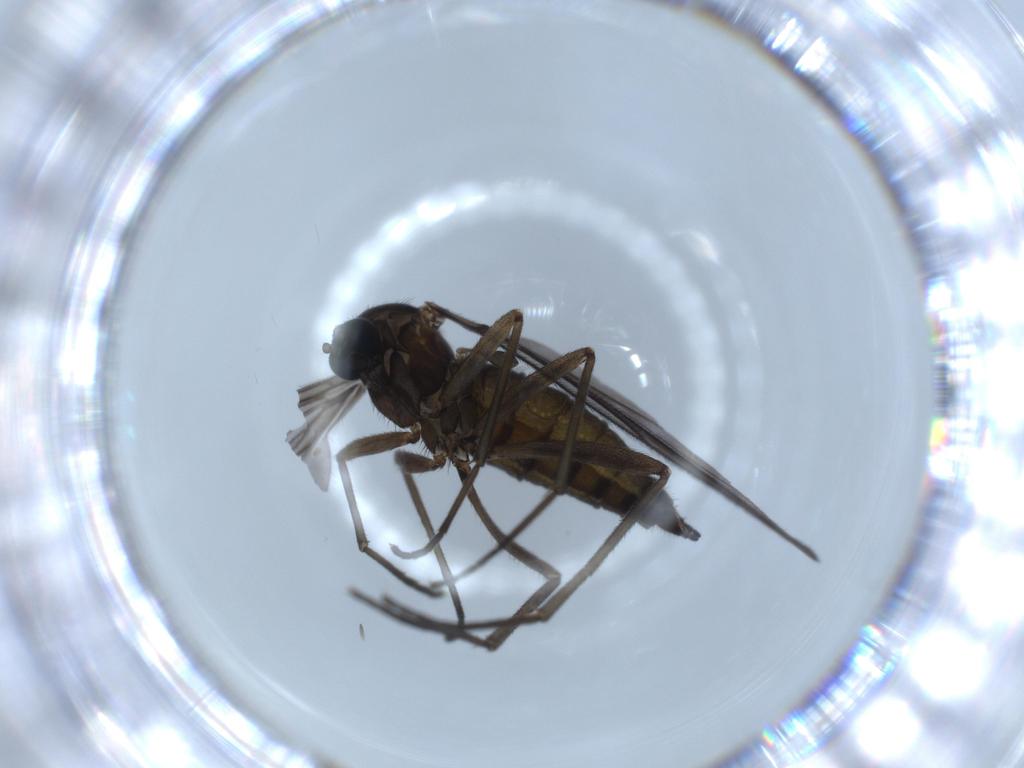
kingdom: Animalia
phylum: Arthropoda
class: Insecta
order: Diptera
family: Sciaridae
